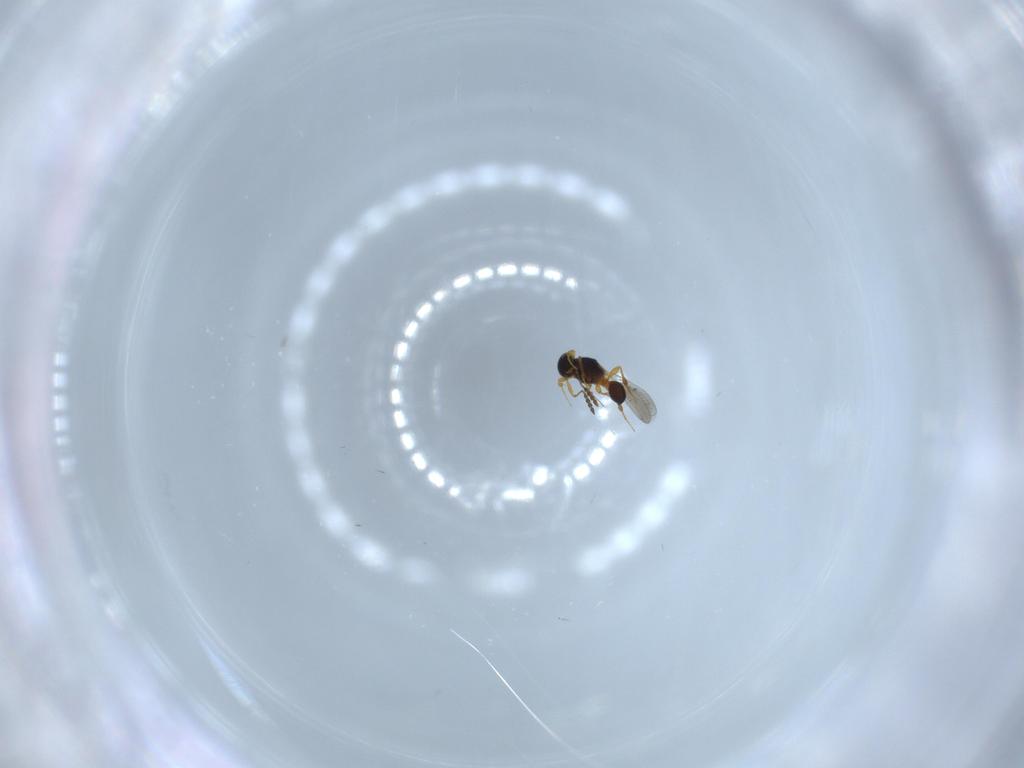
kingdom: Animalia
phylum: Arthropoda
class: Insecta
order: Hymenoptera
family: Platygastridae
